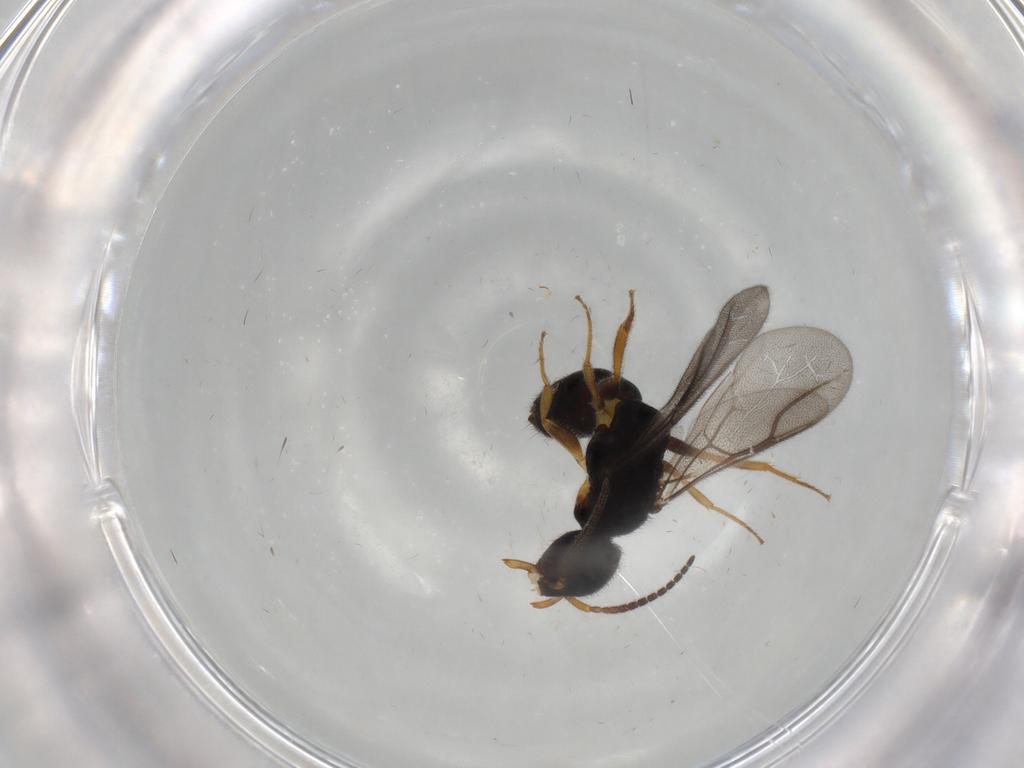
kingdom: Animalia
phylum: Arthropoda
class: Insecta
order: Hymenoptera
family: Bethylidae
